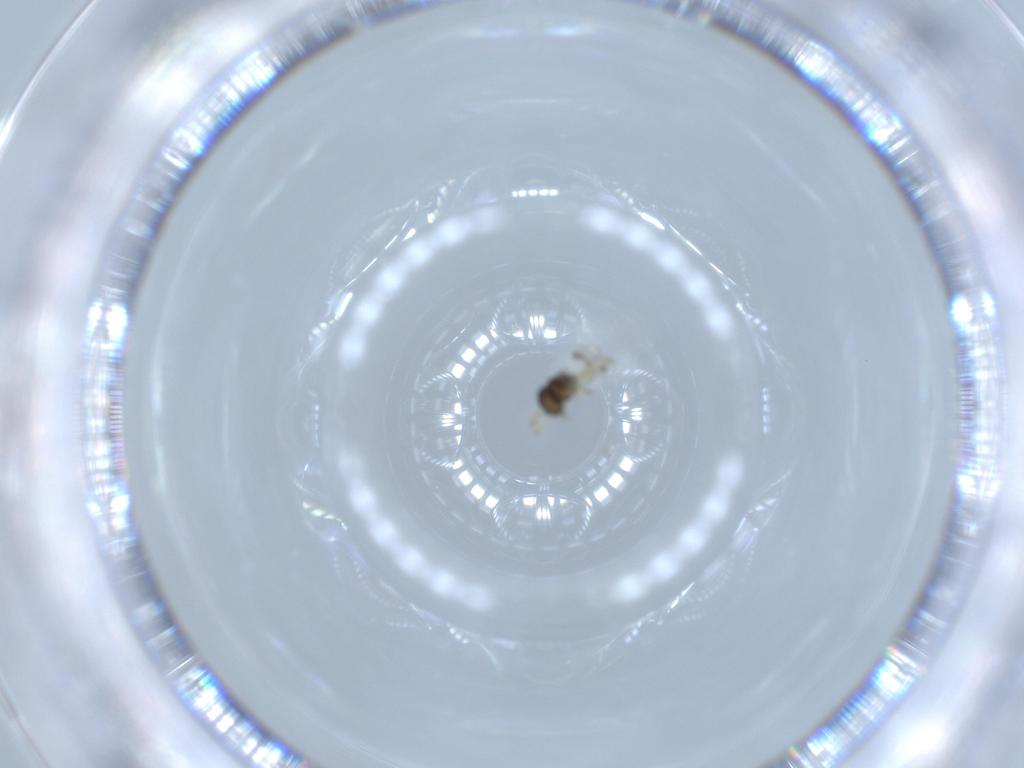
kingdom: Animalia
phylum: Arthropoda
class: Insecta
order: Hymenoptera
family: Scelionidae
